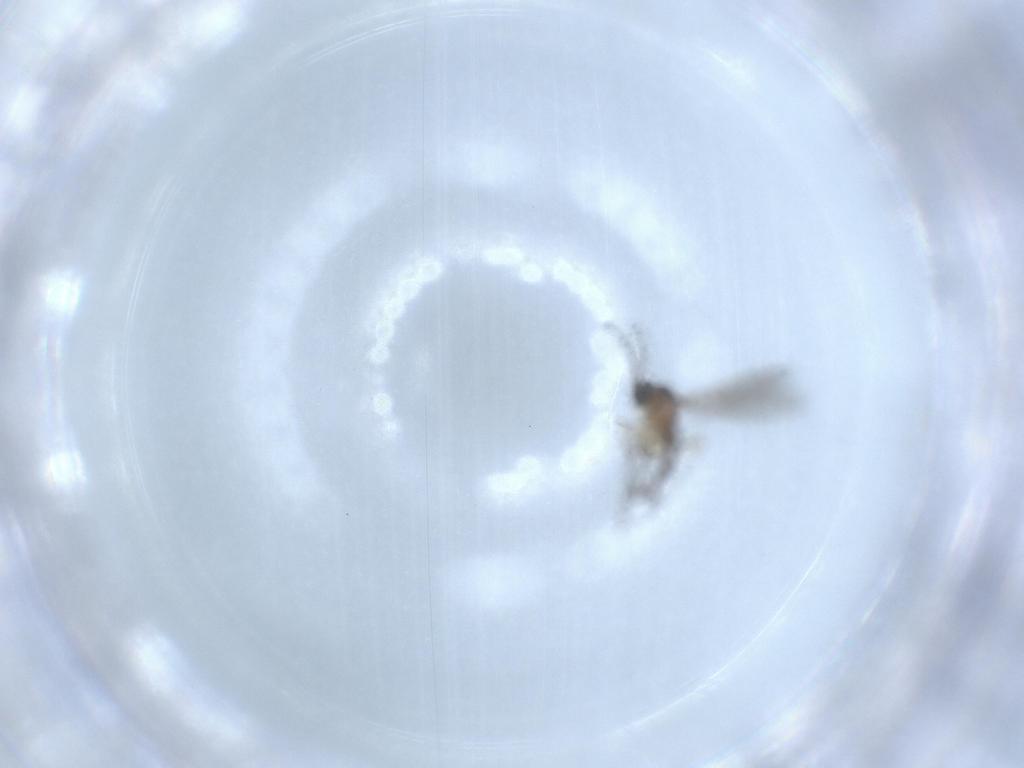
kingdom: Animalia
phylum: Arthropoda
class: Insecta
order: Diptera
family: Sciaridae
